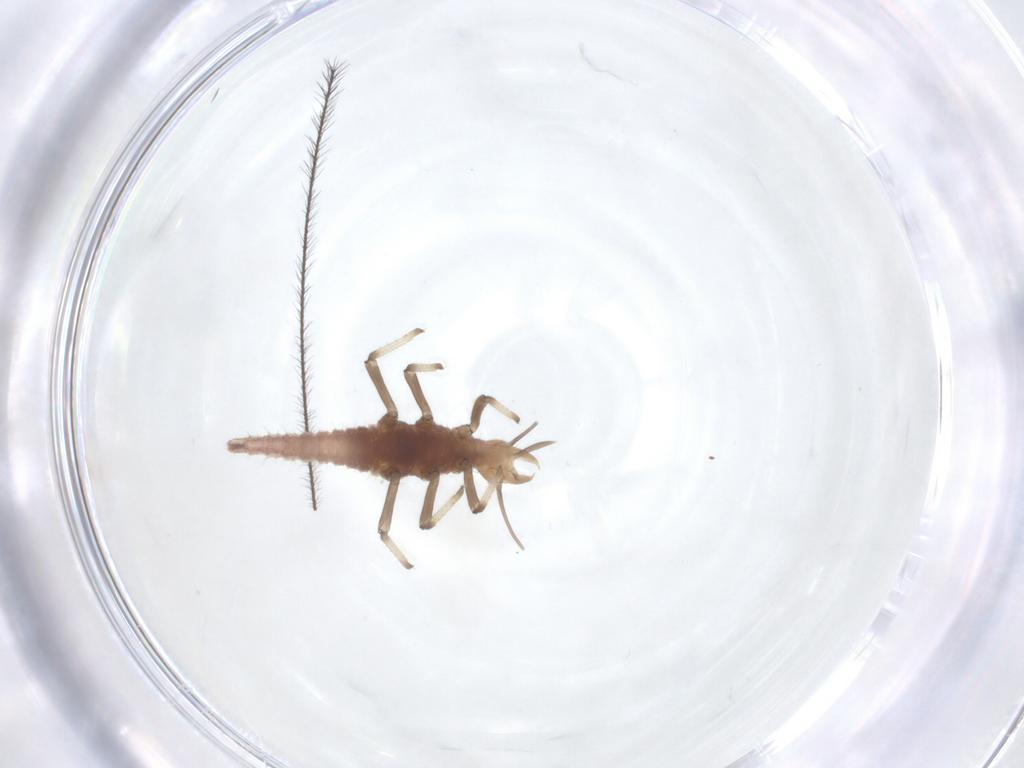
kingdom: Animalia
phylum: Arthropoda
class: Insecta
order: Neuroptera
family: Hemerobiidae
